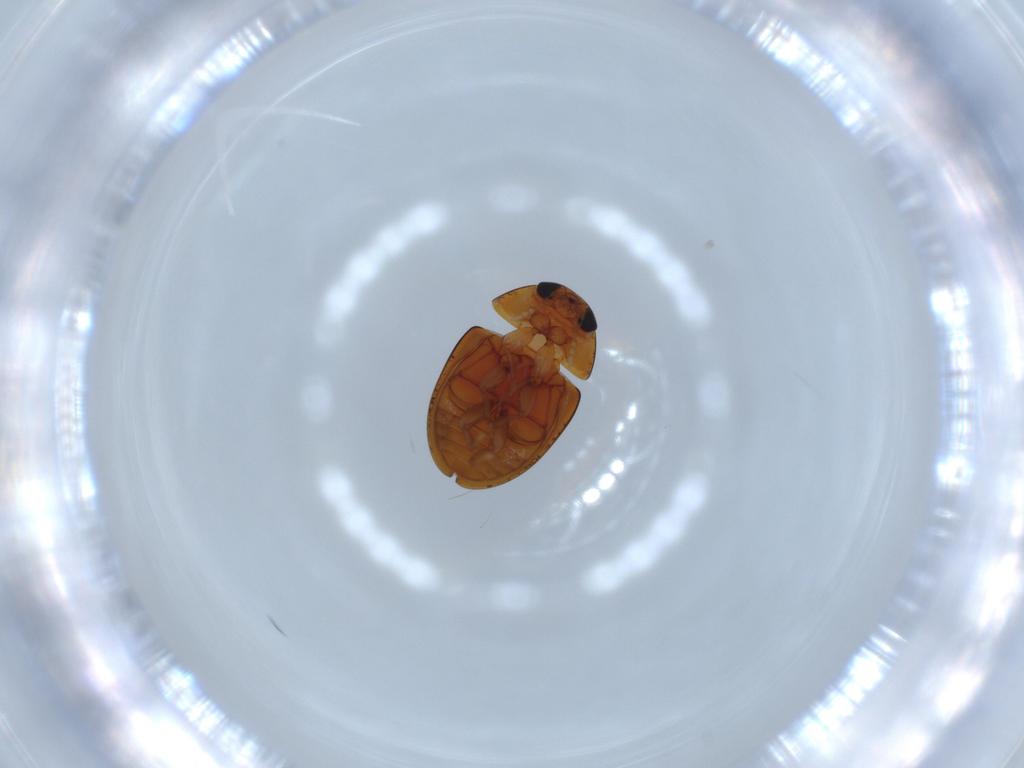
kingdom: Animalia
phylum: Arthropoda
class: Insecta
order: Coleoptera
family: Phalacridae
